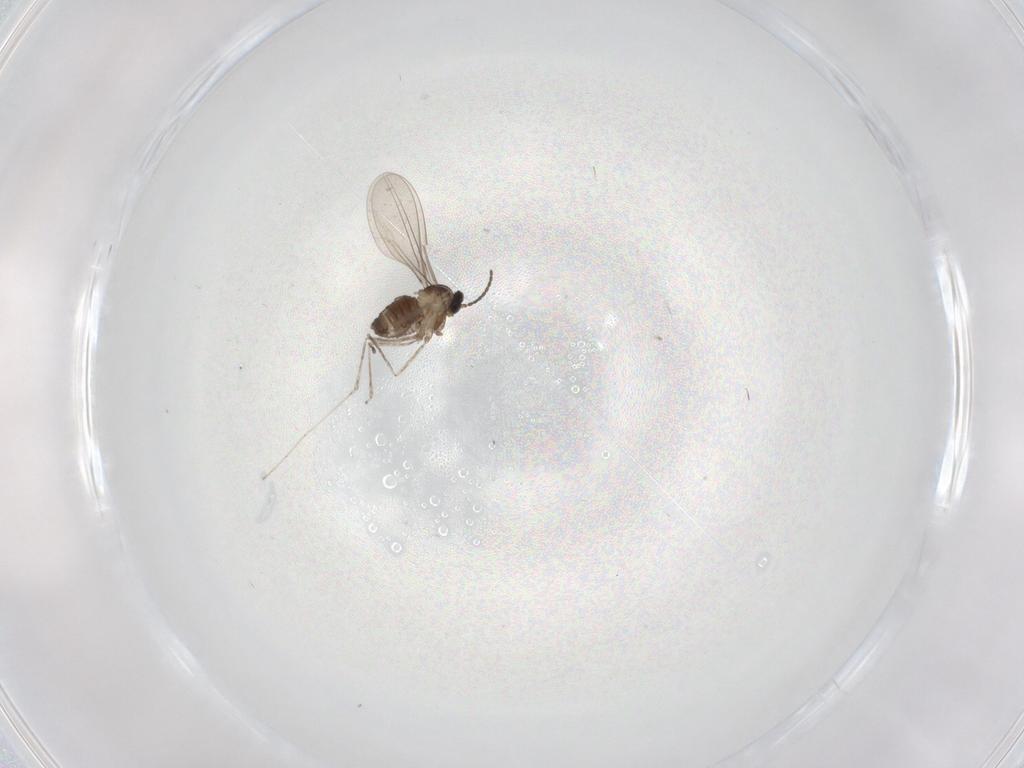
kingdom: Animalia
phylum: Arthropoda
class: Insecta
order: Diptera
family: Cecidomyiidae
